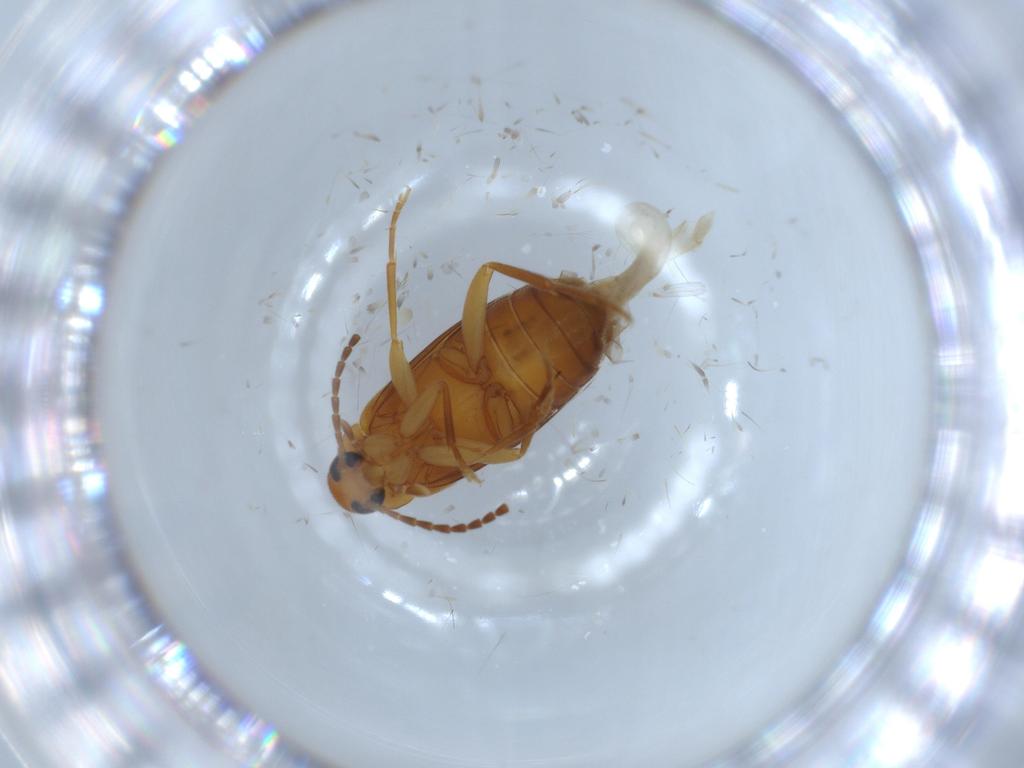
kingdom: Animalia
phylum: Arthropoda
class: Insecta
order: Coleoptera
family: Scraptiidae
